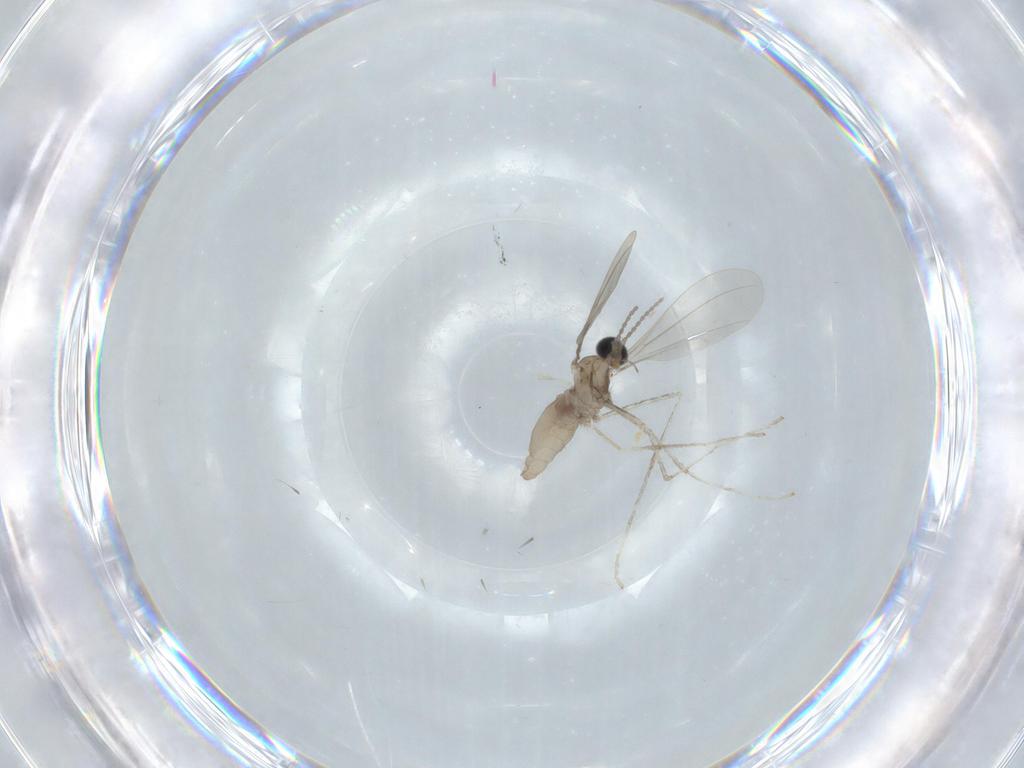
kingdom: Animalia
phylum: Arthropoda
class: Insecta
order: Diptera
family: Cecidomyiidae
